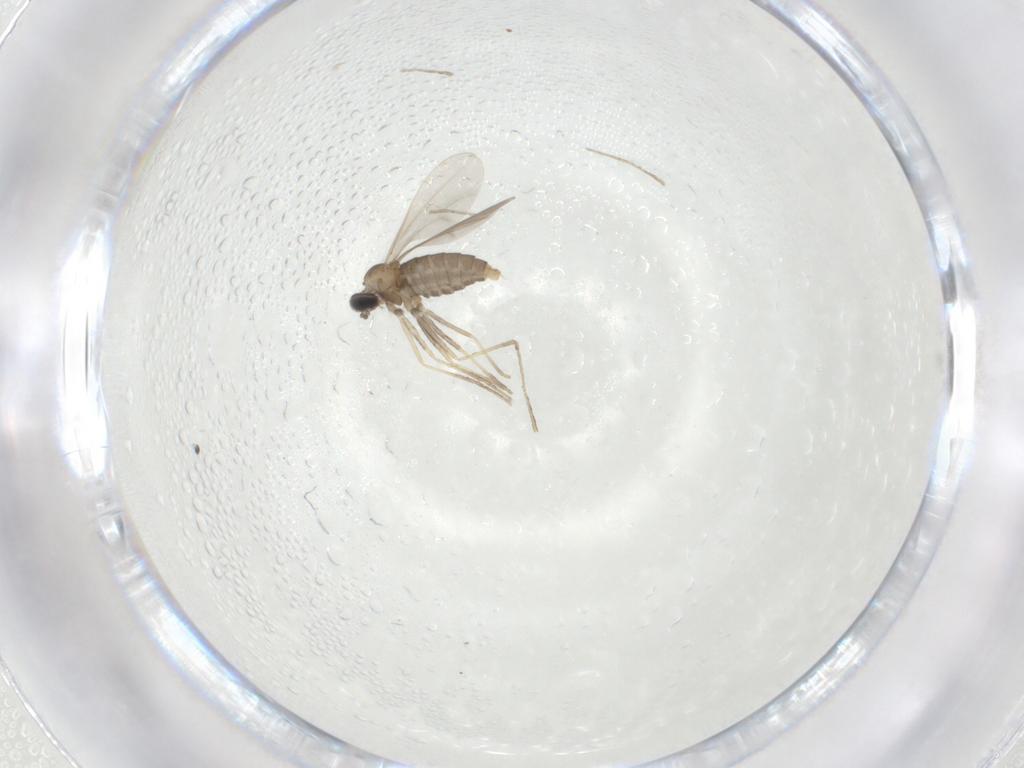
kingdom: Animalia
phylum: Arthropoda
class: Insecta
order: Diptera
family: Cecidomyiidae
